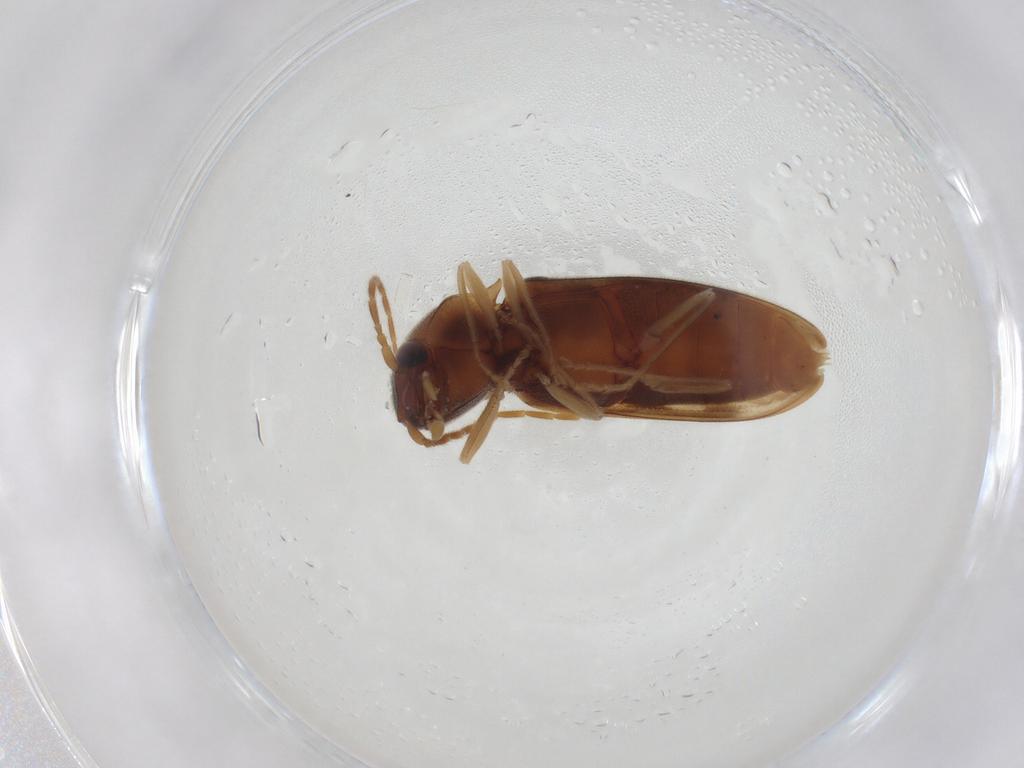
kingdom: Animalia
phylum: Arthropoda
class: Insecta
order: Coleoptera
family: Elateridae
